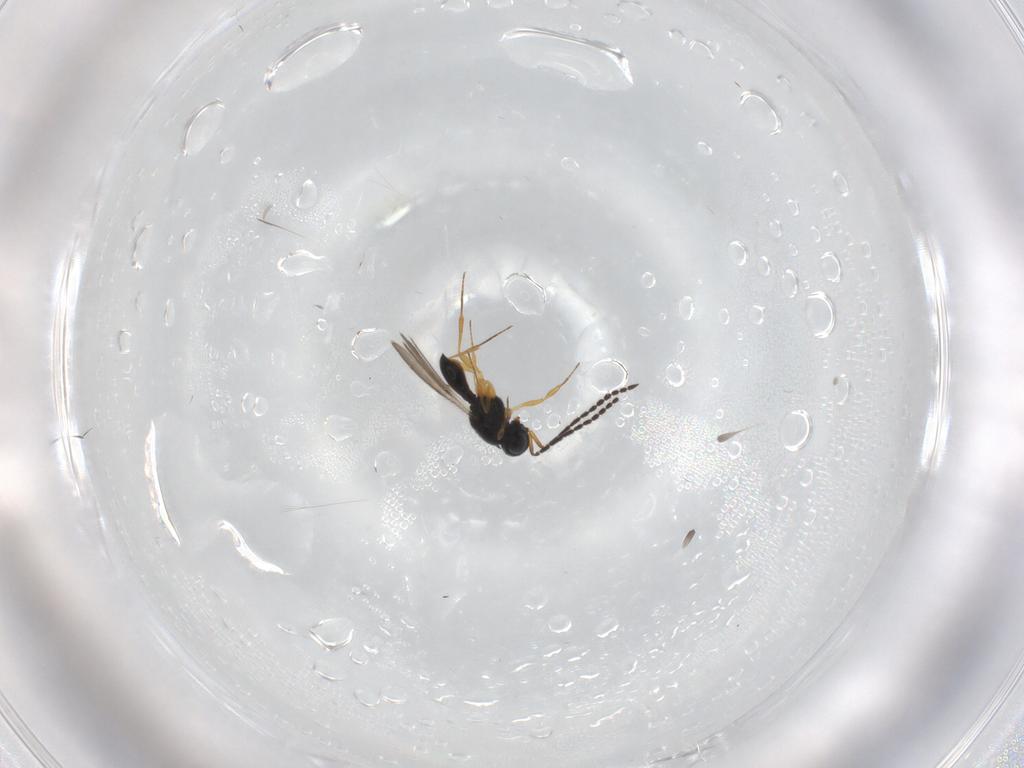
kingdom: Animalia
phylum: Arthropoda
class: Insecta
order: Hymenoptera
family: Scelionidae
